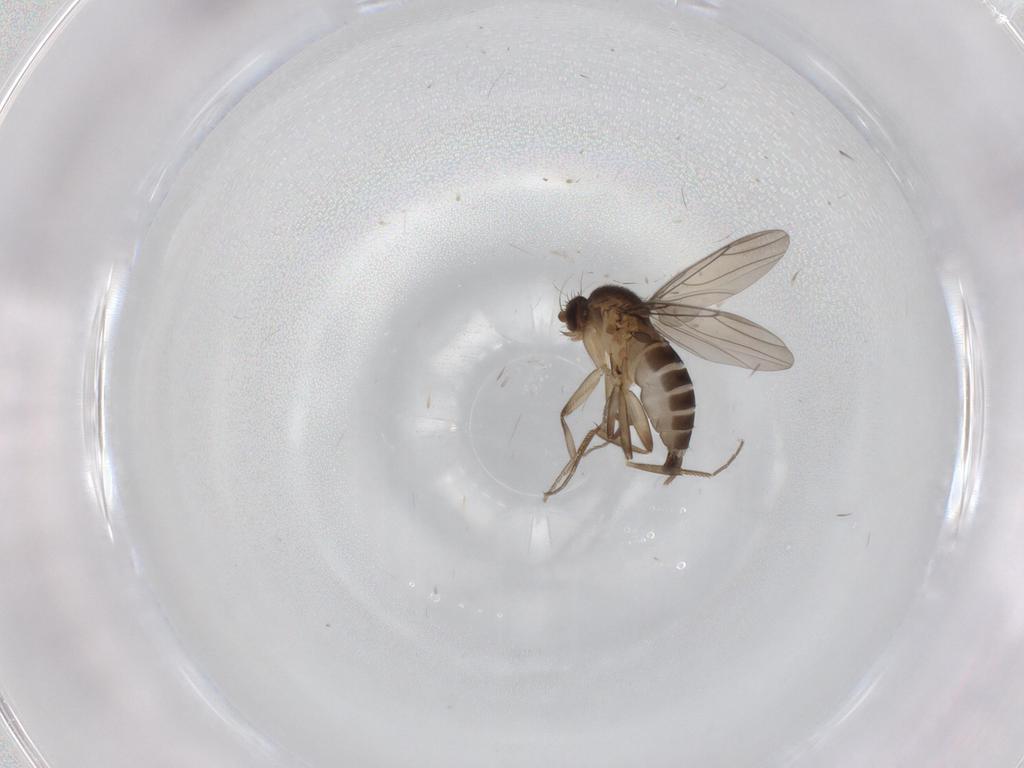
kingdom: Animalia
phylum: Arthropoda
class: Insecta
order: Diptera
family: Phoridae
